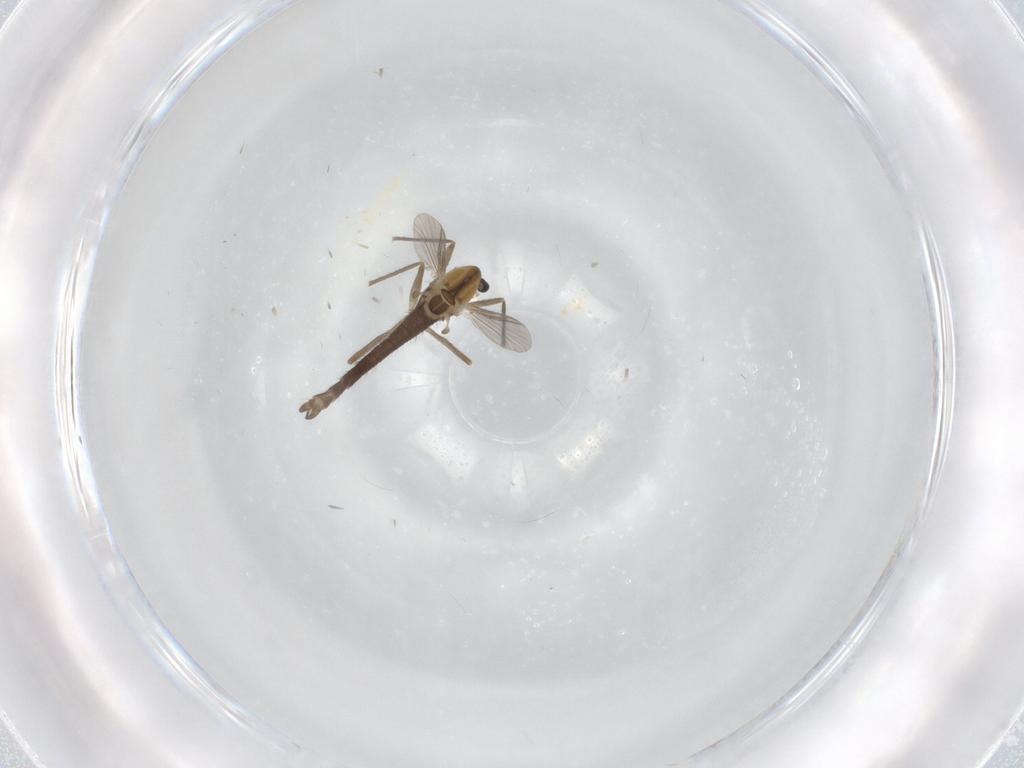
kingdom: Animalia
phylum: Arthropoda
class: Insecta
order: Diptera
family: Chironomidae
